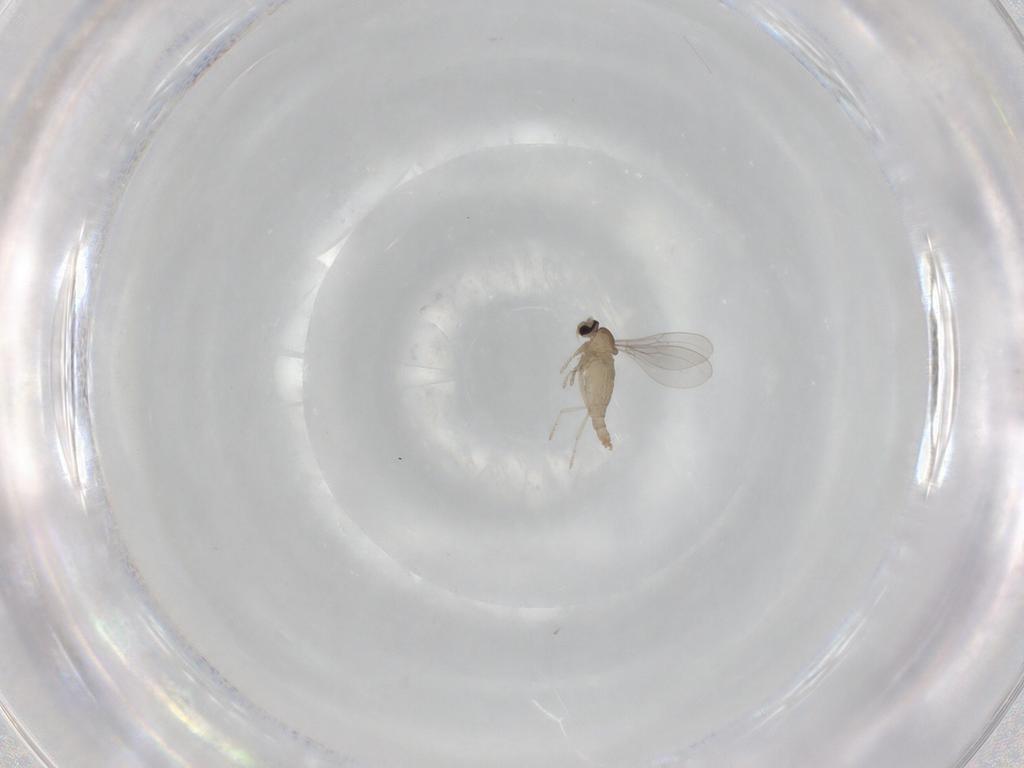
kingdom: Animalia
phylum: Arthropoda
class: Insecta
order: Diptera
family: Cecidomyiidae
